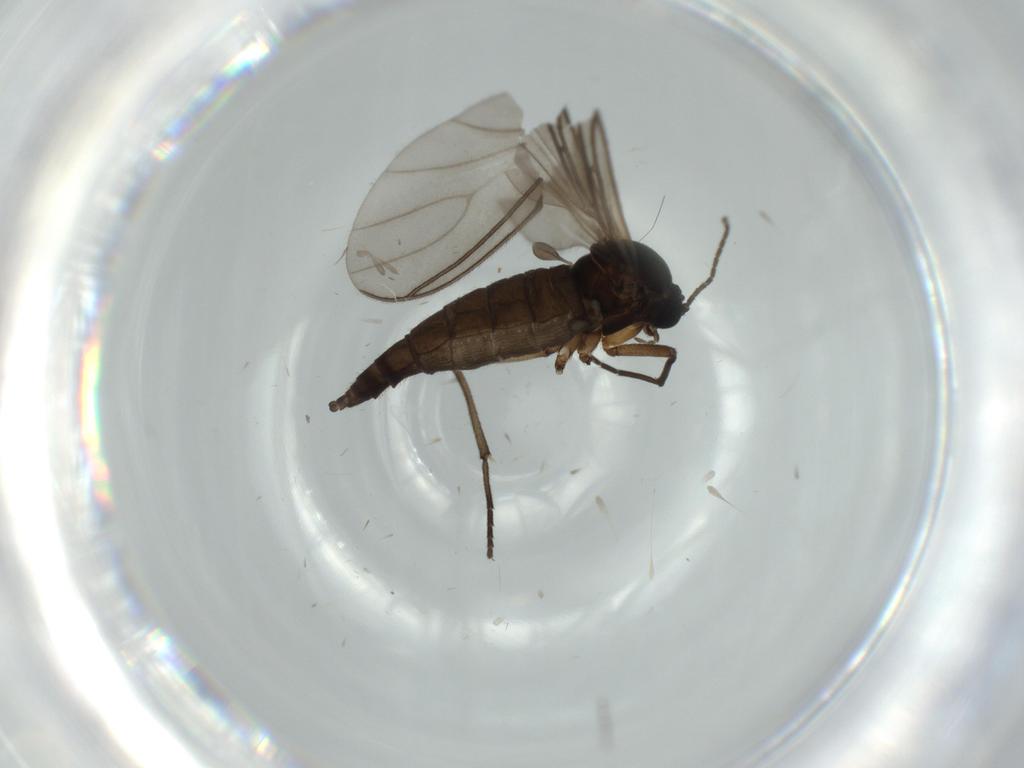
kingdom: Animalia
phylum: Arthropoda
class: Insecta
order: Diptera
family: Sciaridae
